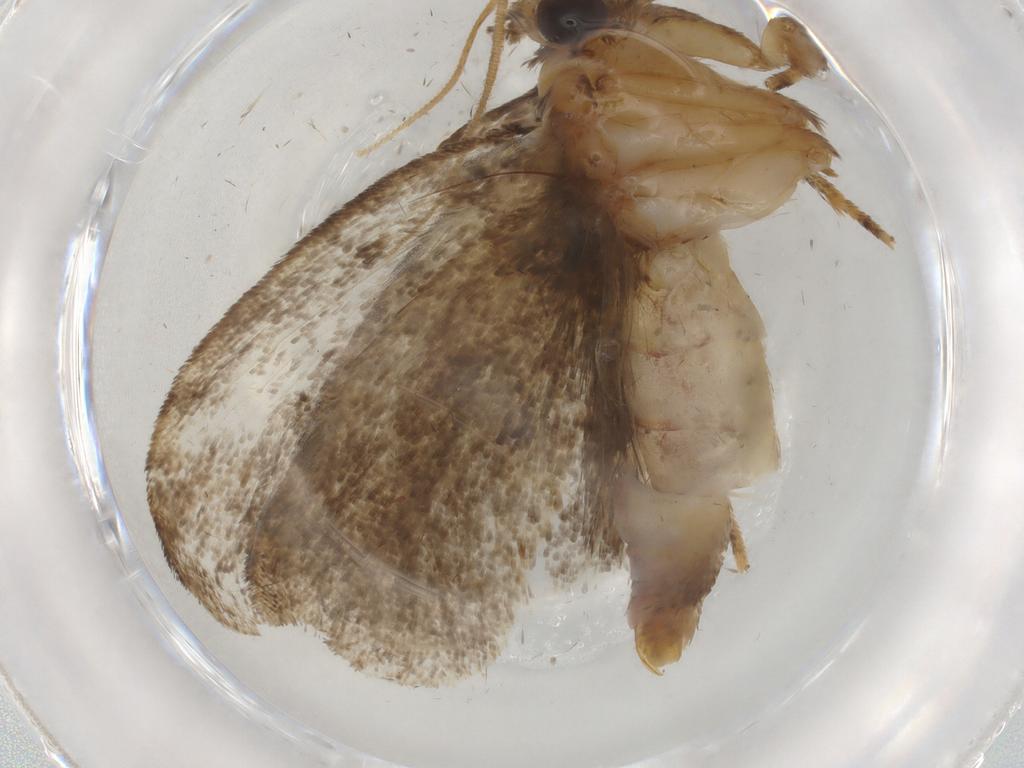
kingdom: Animalia
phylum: Arthropoda
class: Insecta
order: Lepidoptera
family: Tineidae
